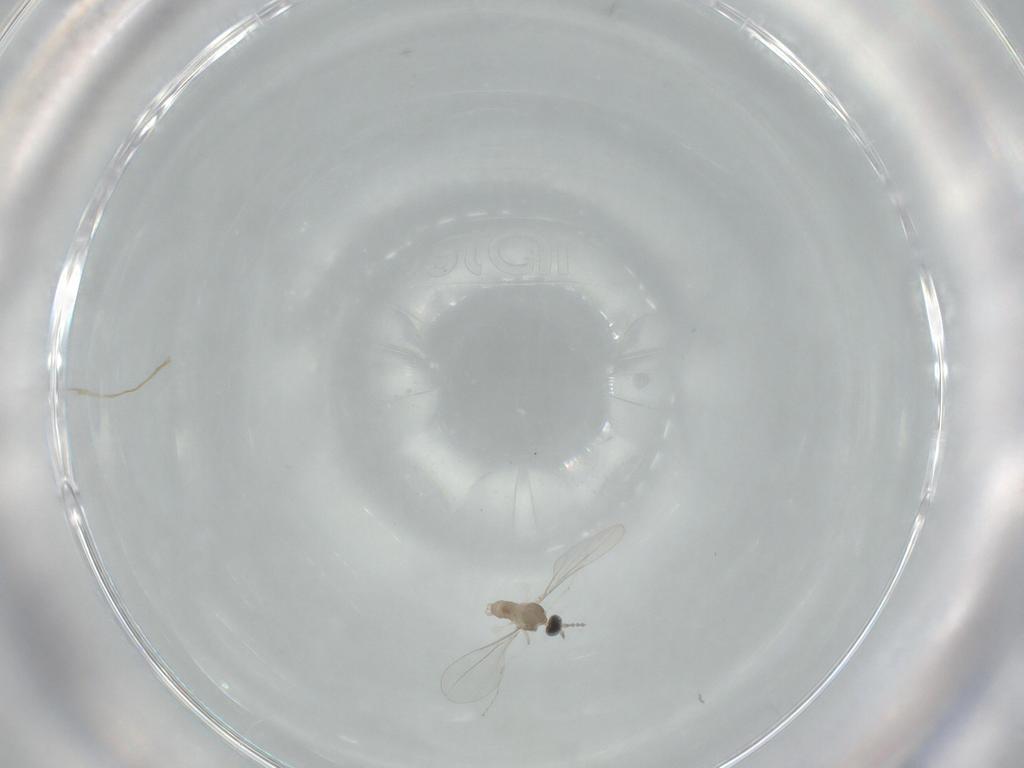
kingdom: Animalia
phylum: Arthropoda
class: Insecta
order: Diptera
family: Cecidomyiidae
